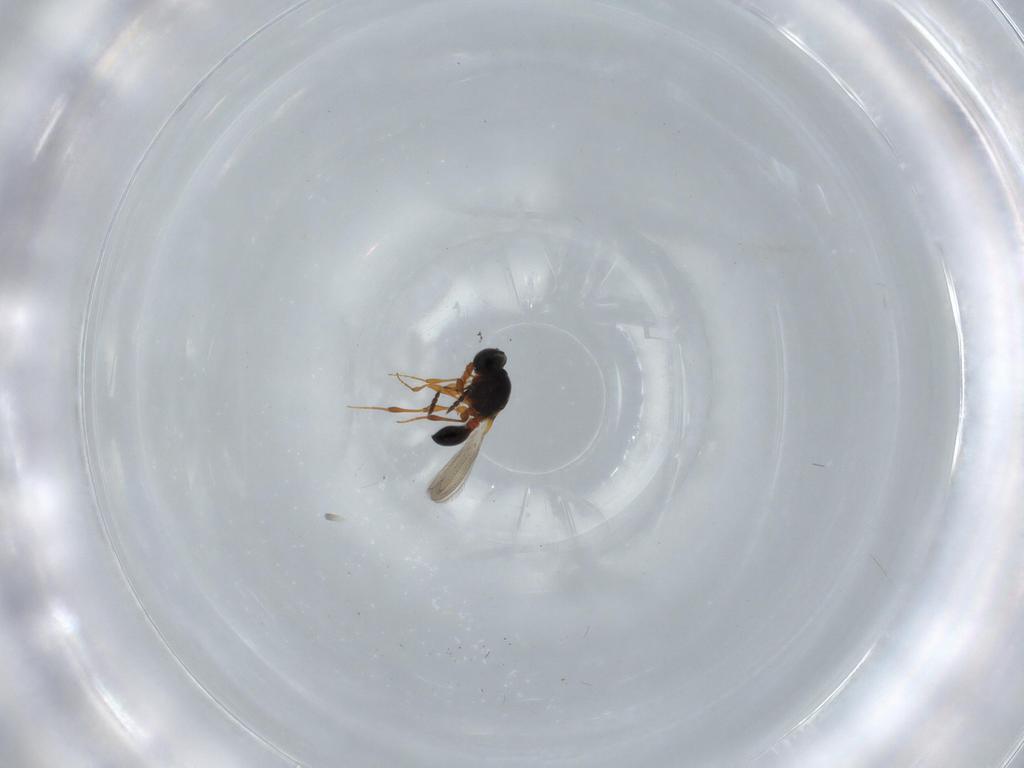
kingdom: Animalia
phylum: Arthropoda
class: Insecta
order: Hymenoptera
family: Platygastridae
